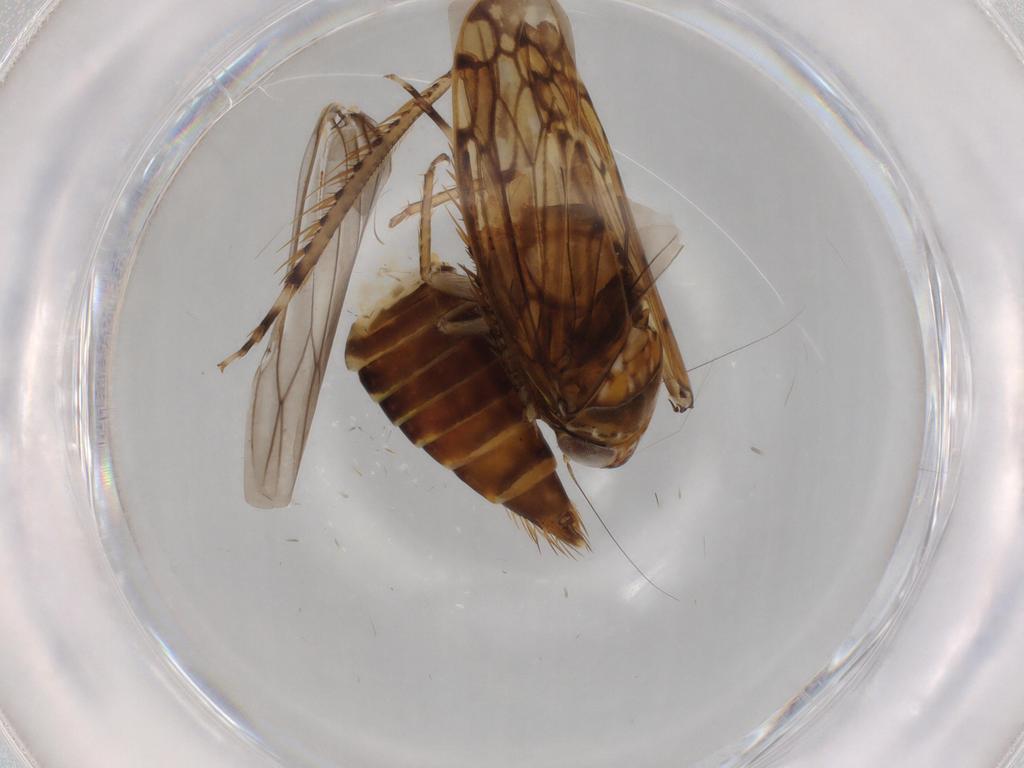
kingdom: Animalia
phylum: Arthropoda
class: Insecta
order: Hemiptera
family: Cicadellidae
